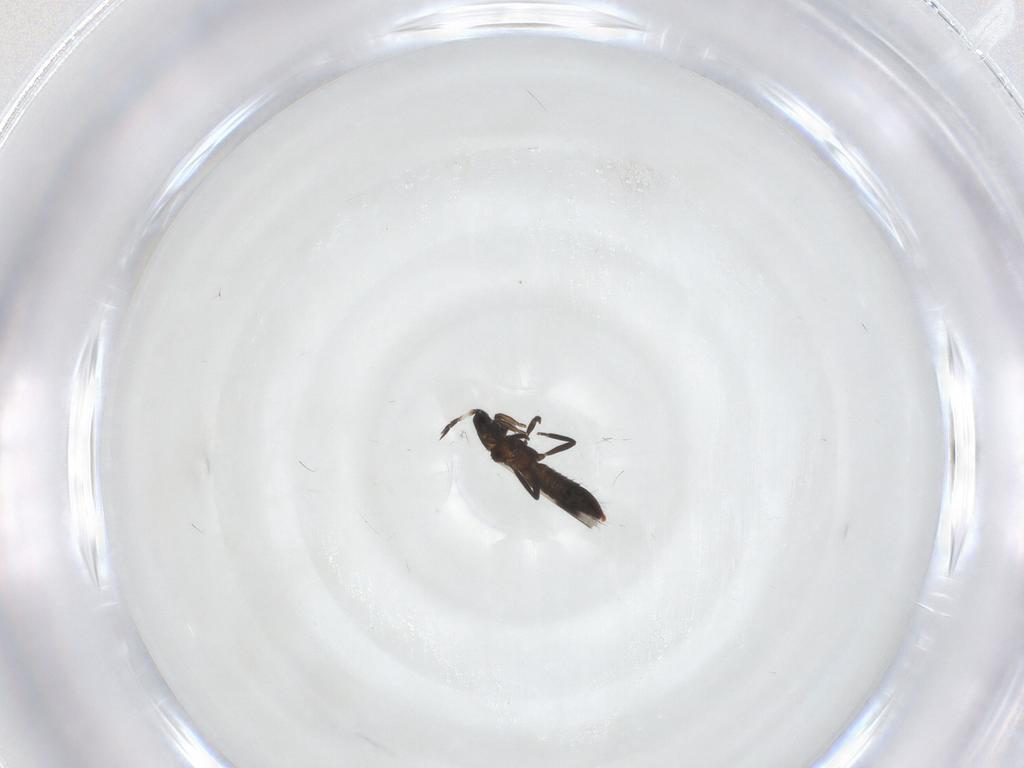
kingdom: Animalia
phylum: Arthropoda
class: Insecta
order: Thysanoptera
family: Aeolothripidae
